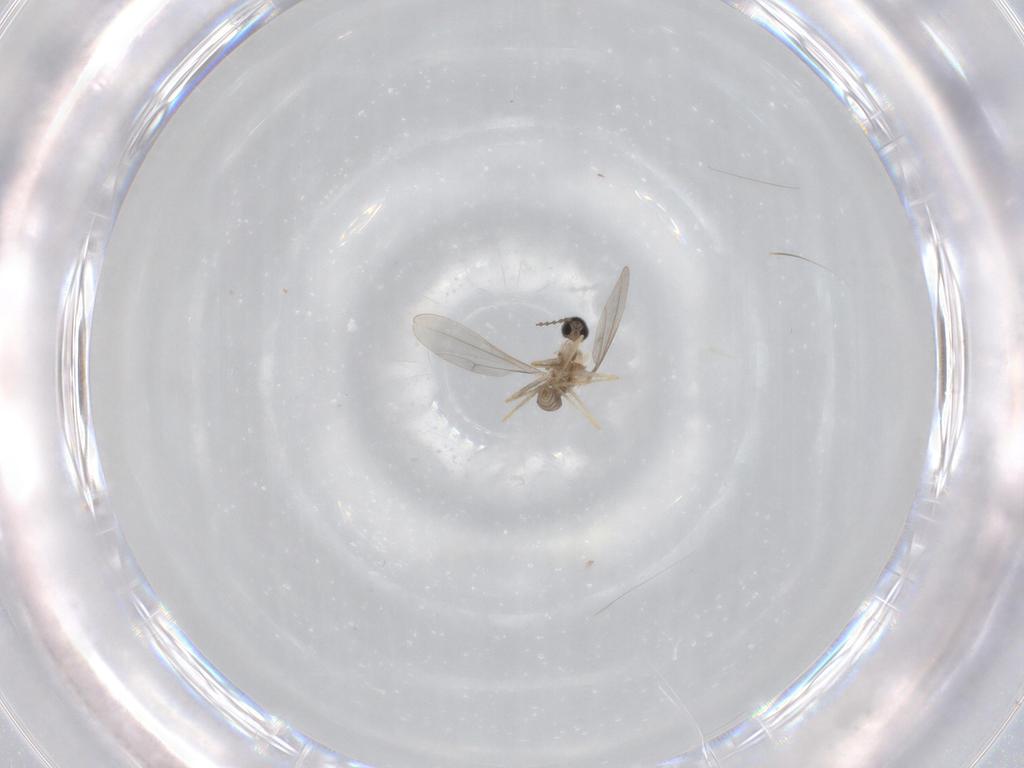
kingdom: Animalia
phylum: Arthropoda
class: Insecta
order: Diptera
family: Cecidomyiidae
